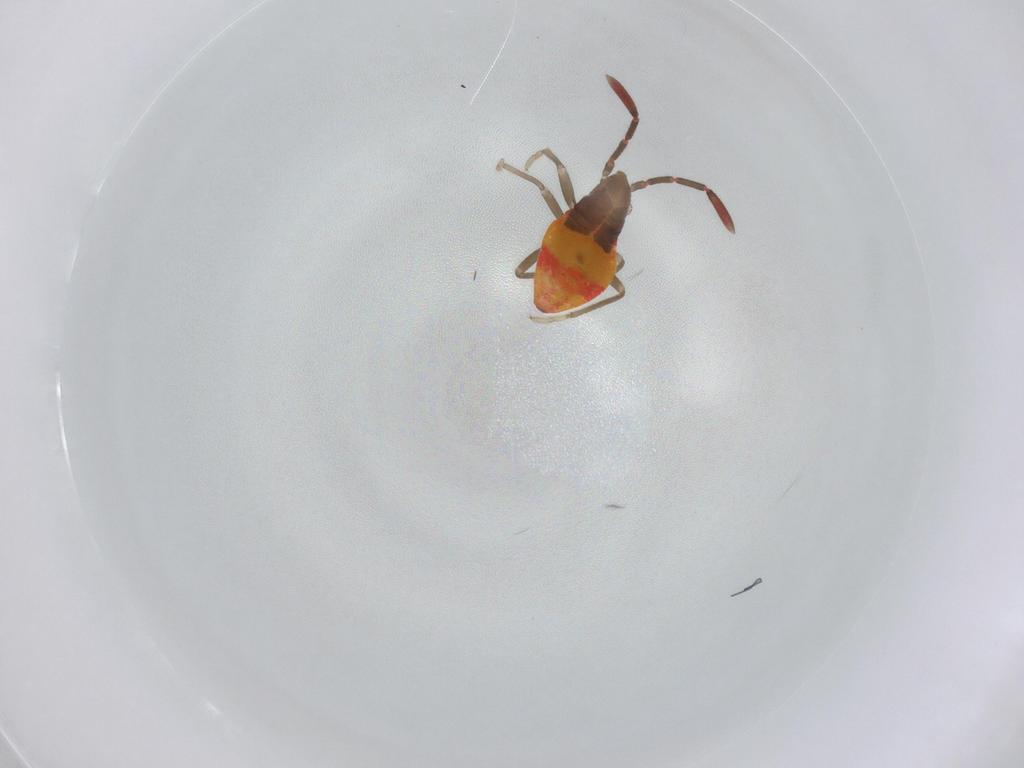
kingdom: Animalia
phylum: Arthropoda
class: Insecta
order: Hemiptera
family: Rhyparochromidae
